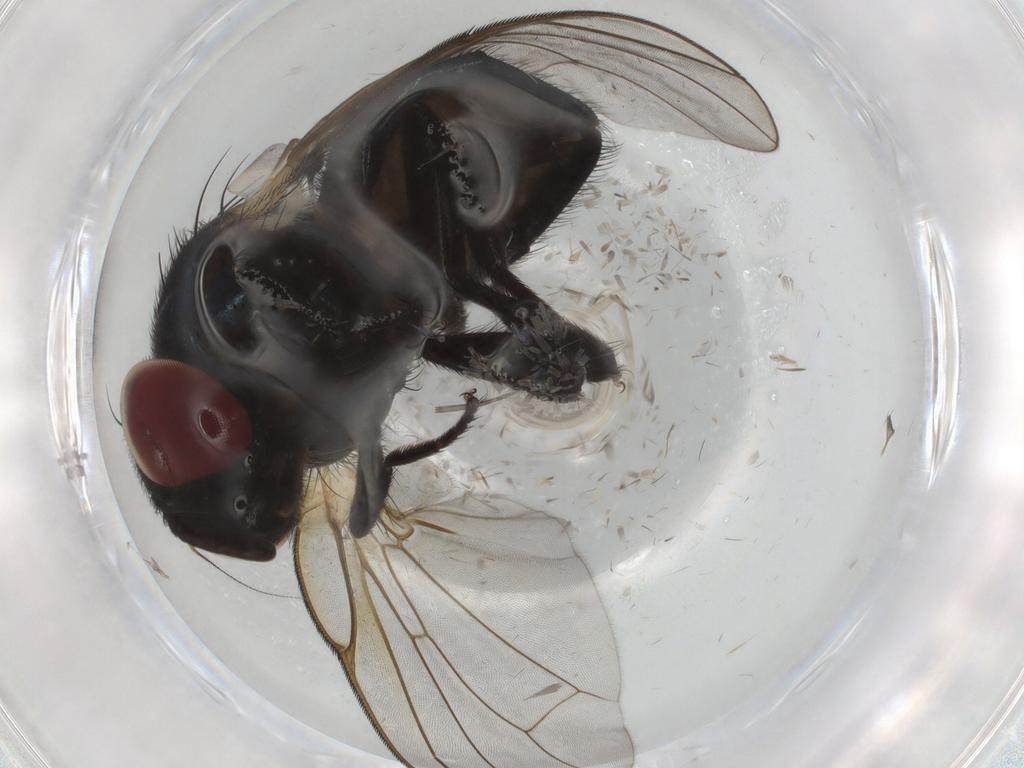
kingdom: Animalia
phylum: Arthropoda
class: Insecta
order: Diptera
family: Lonchaeidae
